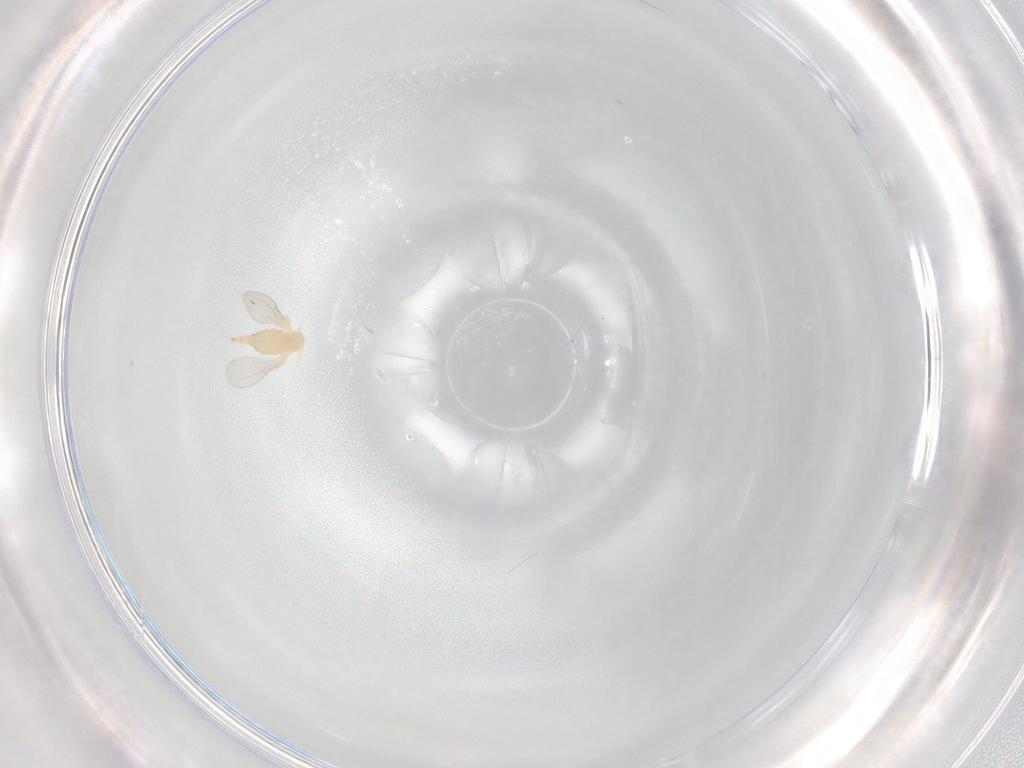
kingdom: Animalia
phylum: Arthropoda
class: Insecta
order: Diptera
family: Cecidomyiidae
